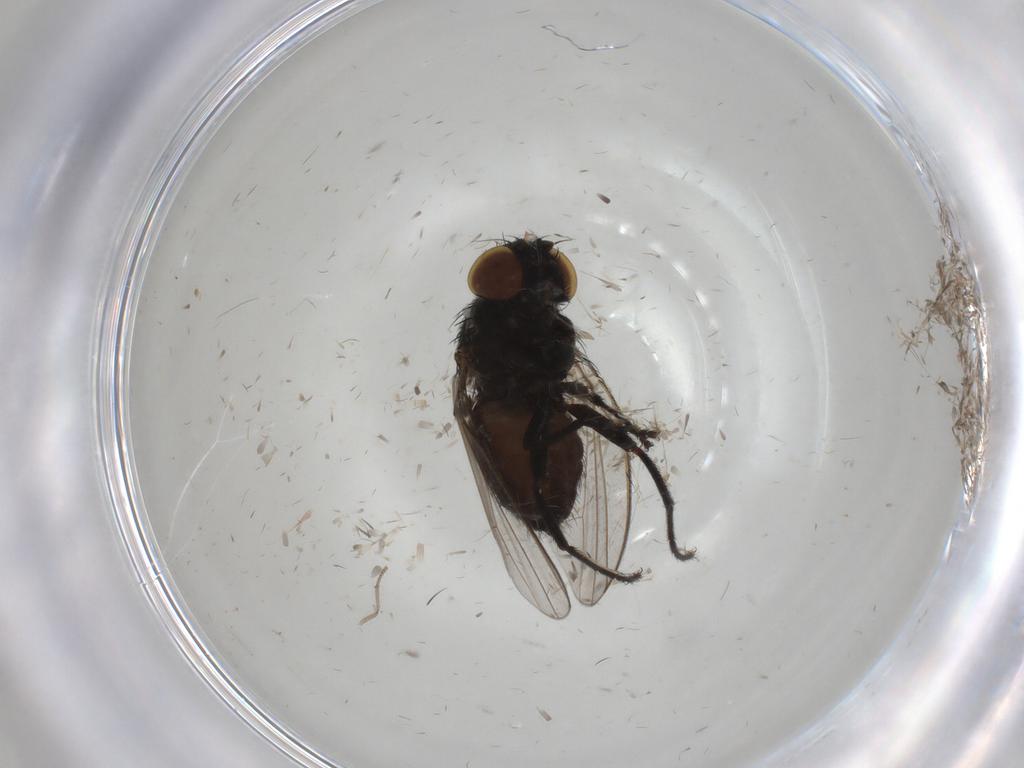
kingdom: Animalia
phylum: Arthropoda
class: Insecta
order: Diptera
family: Milichiidae
